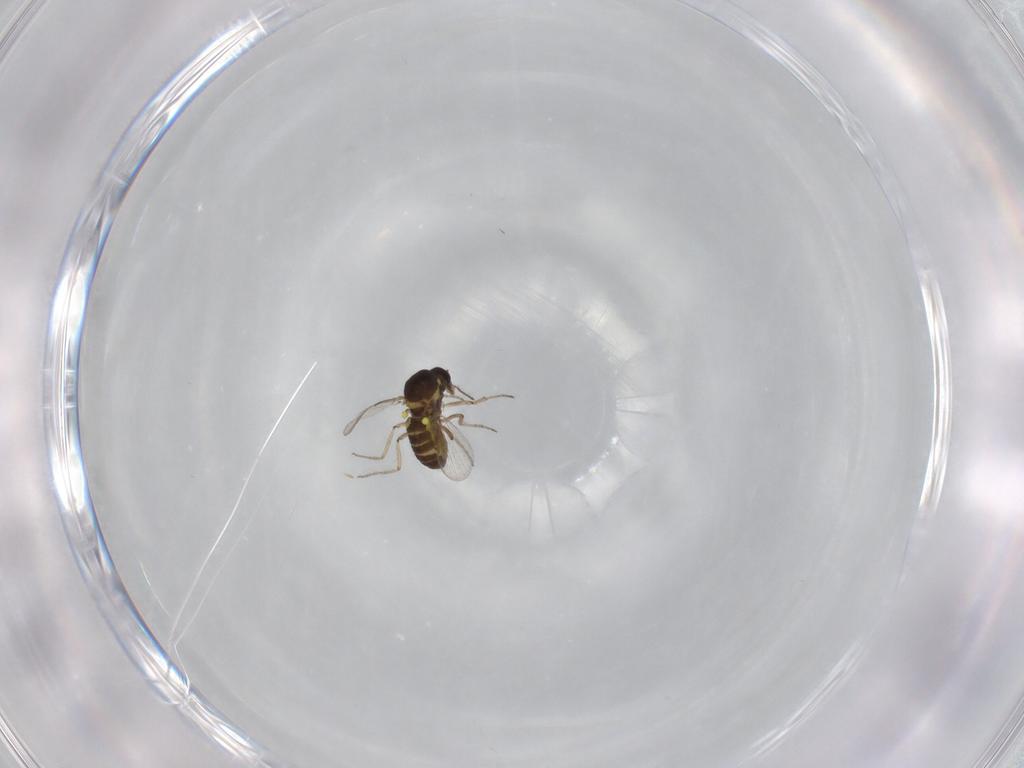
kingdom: Animalia
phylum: Arthropoda
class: Insecta
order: Diptera
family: Ceratopogonidae
